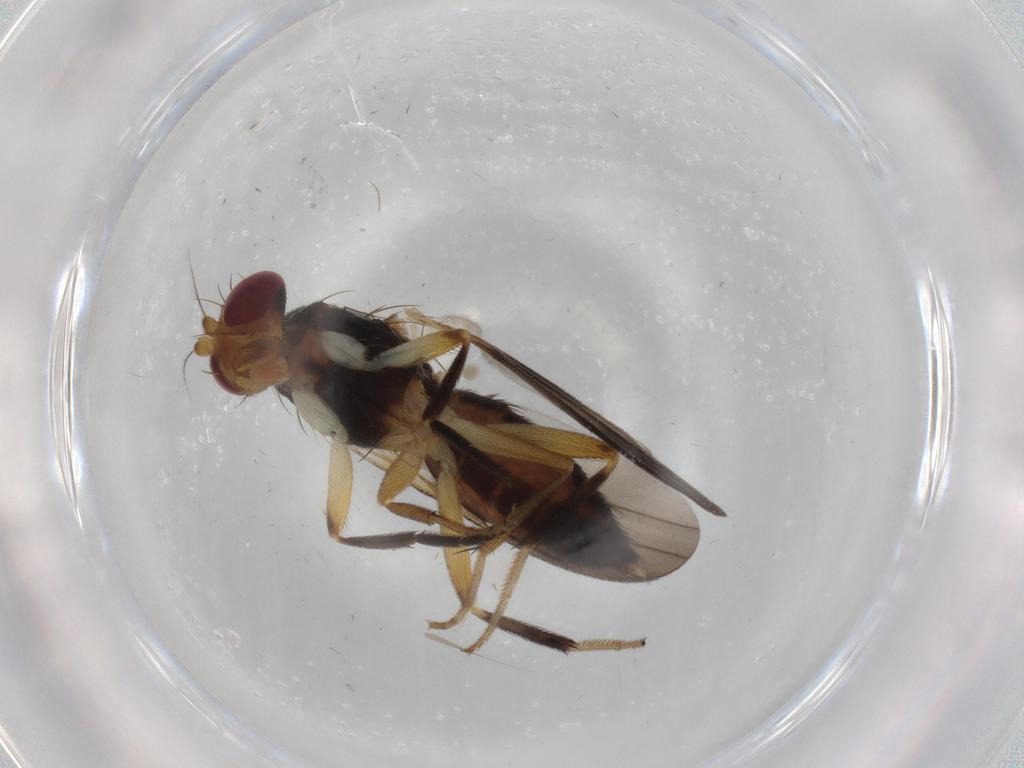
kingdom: Animalia
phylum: Arthropoda
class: Insecta
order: Diptera
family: Clusiidae
